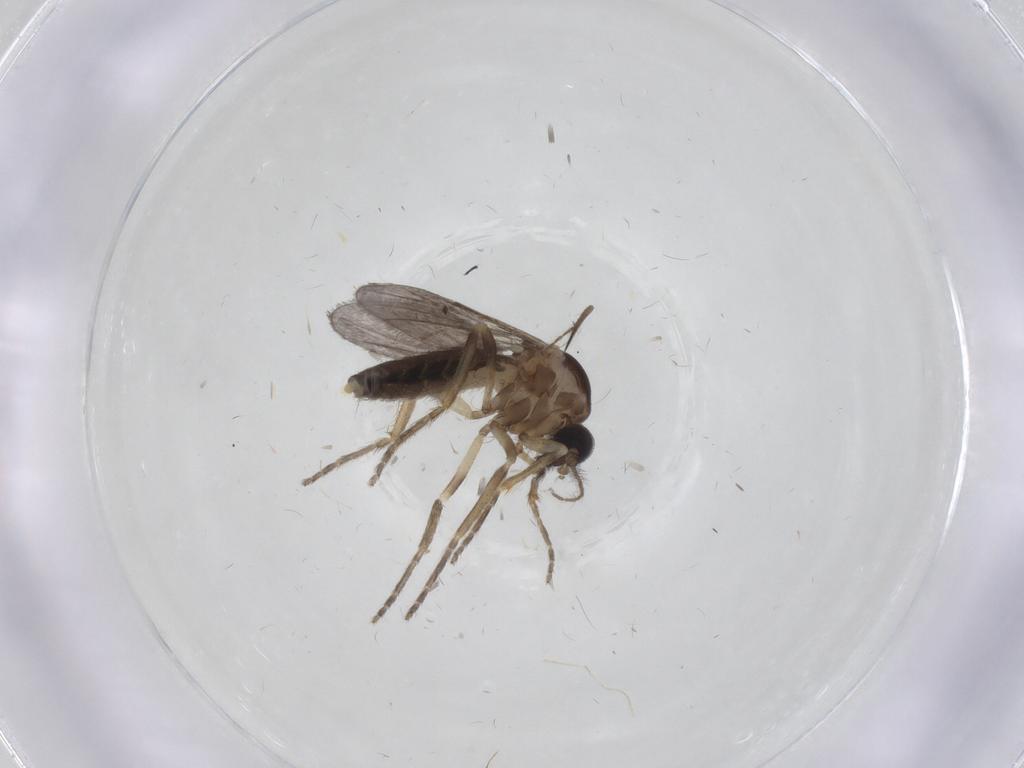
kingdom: Animalia
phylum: Arthropoda
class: Insecta
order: Diptera
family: Ceratopogonidae
